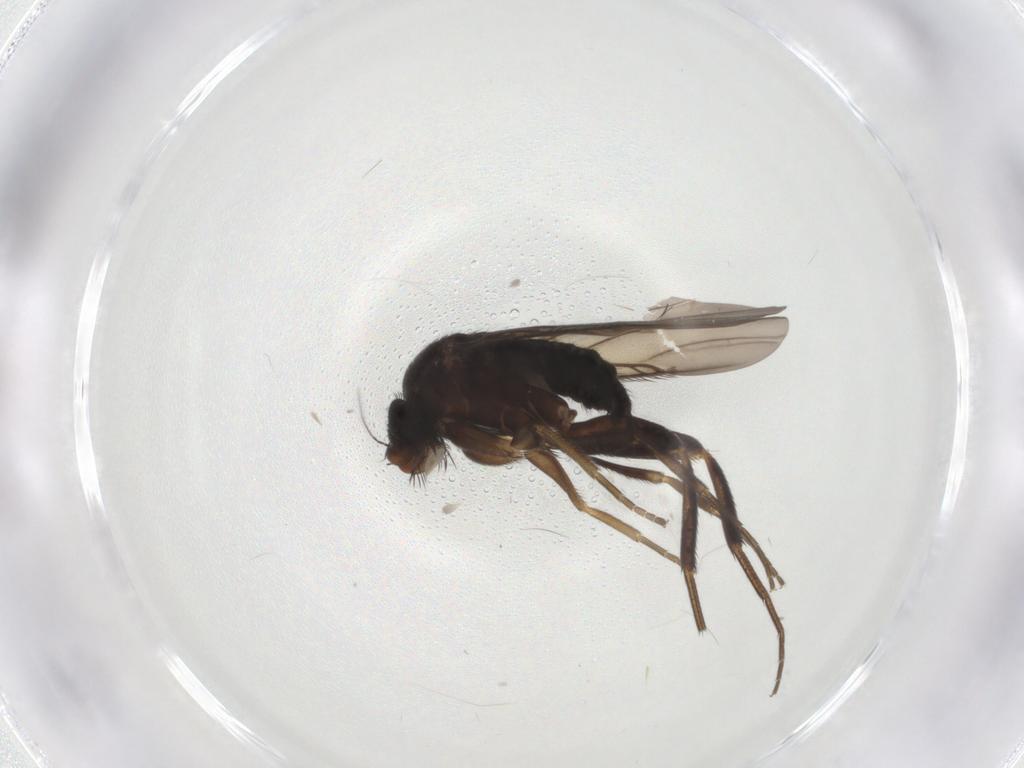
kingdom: Animalia
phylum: Arthropoda
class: Insecta
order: Diptera
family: Phoridae
